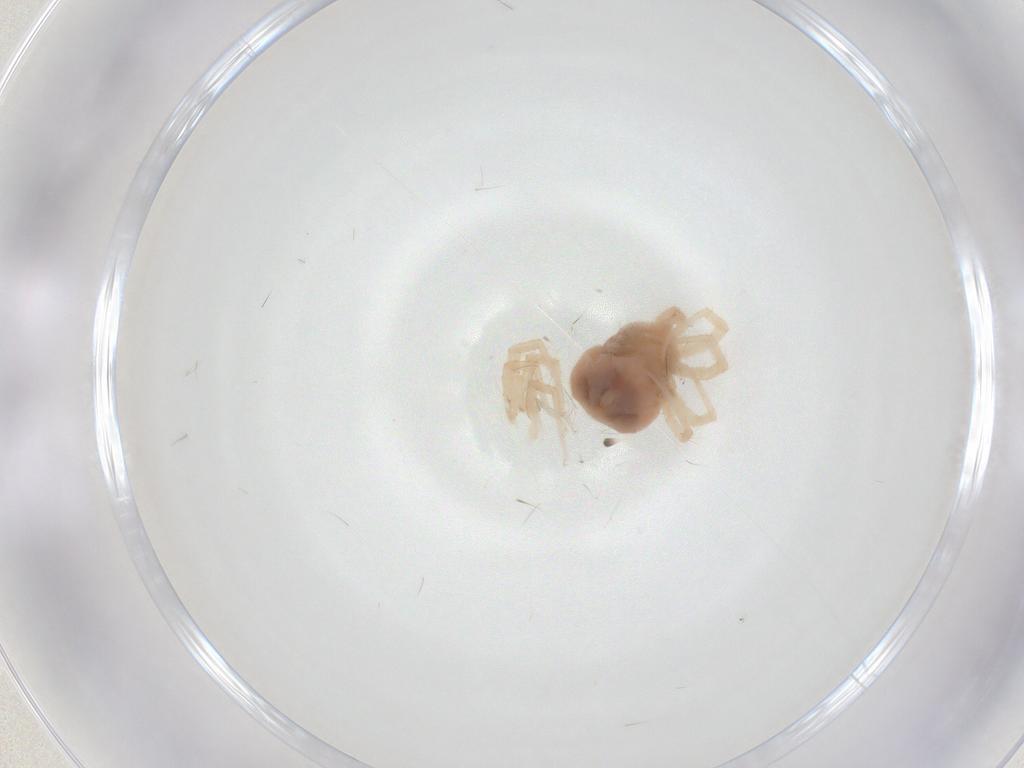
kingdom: Animalia
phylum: Arthropoda
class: Arachnida
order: Trombidiformes
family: Anystidae
